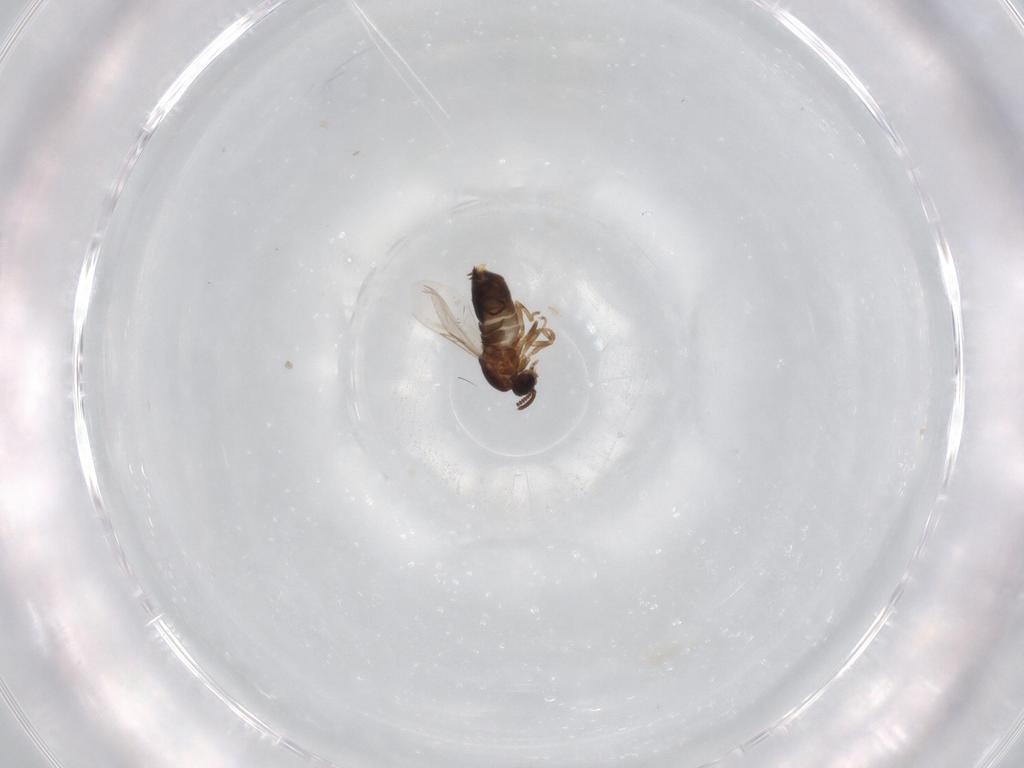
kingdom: Animalia
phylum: Arthropoda
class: Insecta
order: Diptera
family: Scatopsidae
